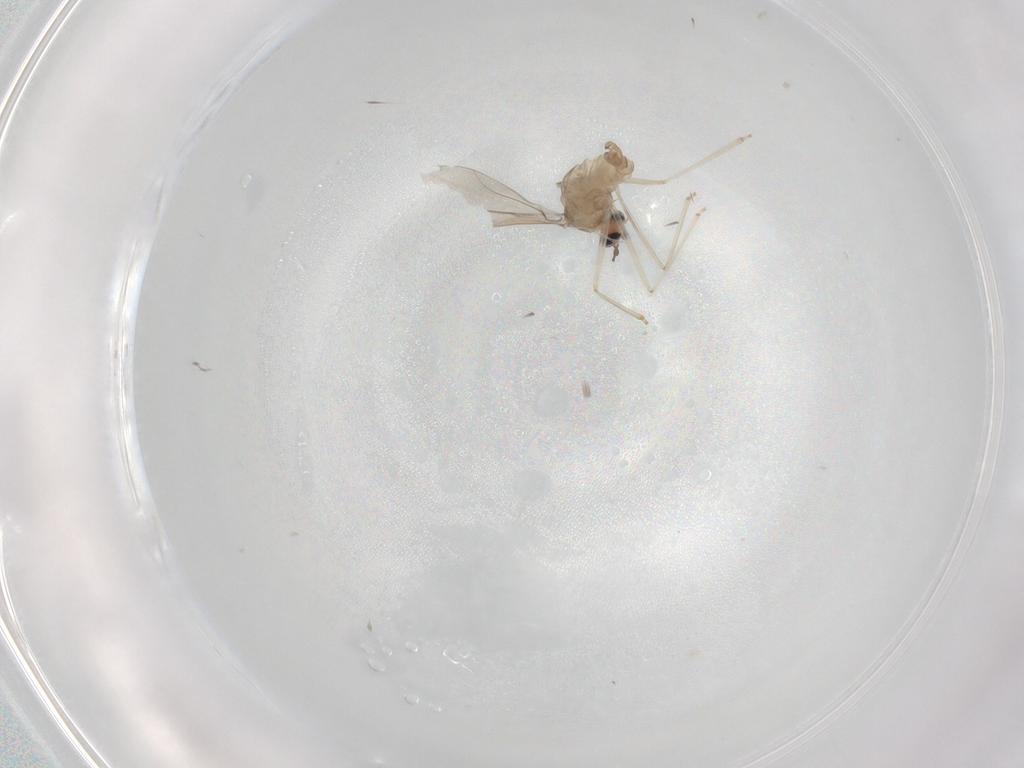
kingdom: Animalia
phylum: Arthropoda
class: Insecta
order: Diptera
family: Cecidomyiidae
